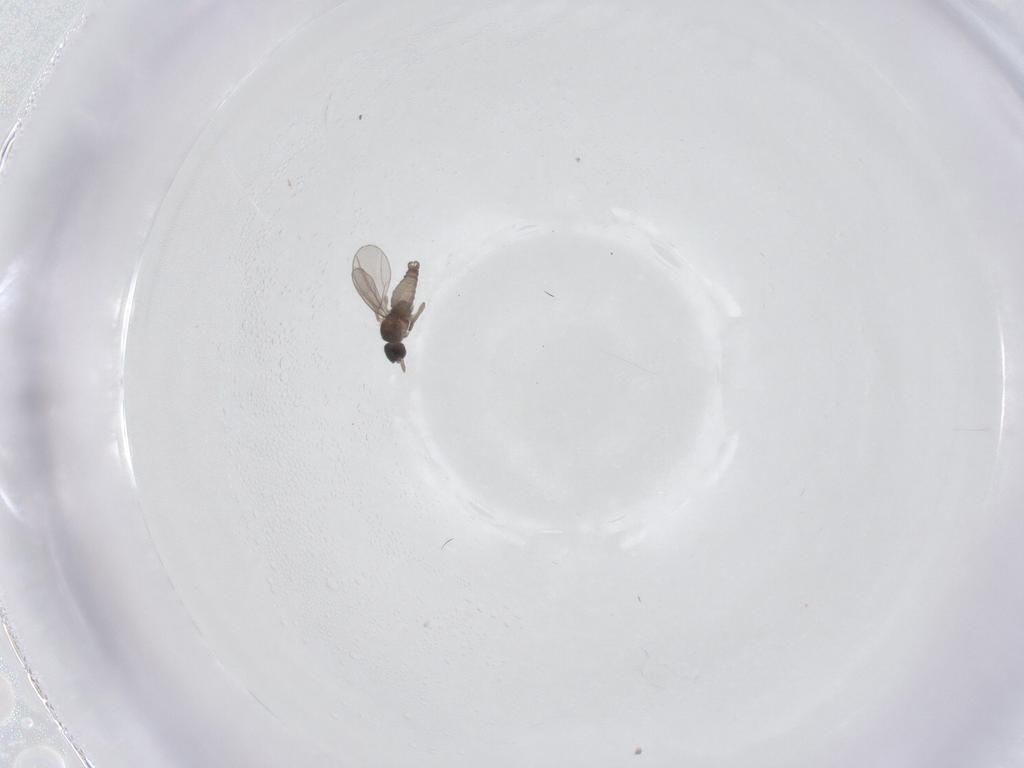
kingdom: Animalia
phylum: Arthropoda
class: Insecta
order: Diptera
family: Cecidomyiidae
